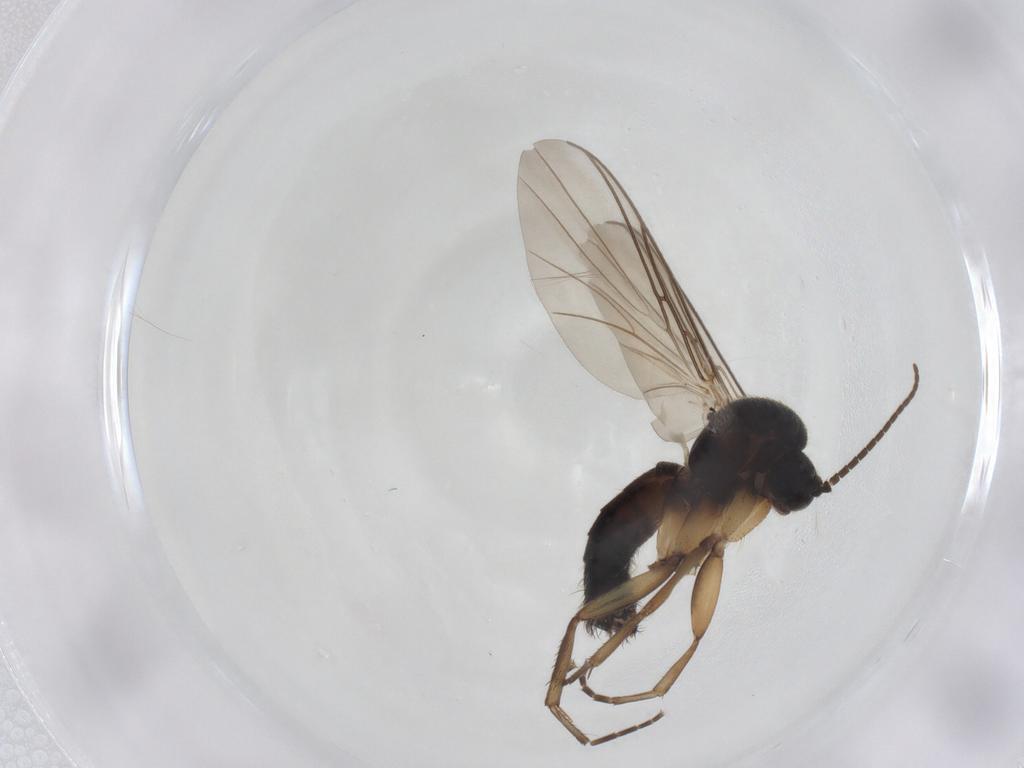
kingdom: Animalia
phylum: Arthropoda
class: Insecta
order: Diptera
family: Mycetophilidae
